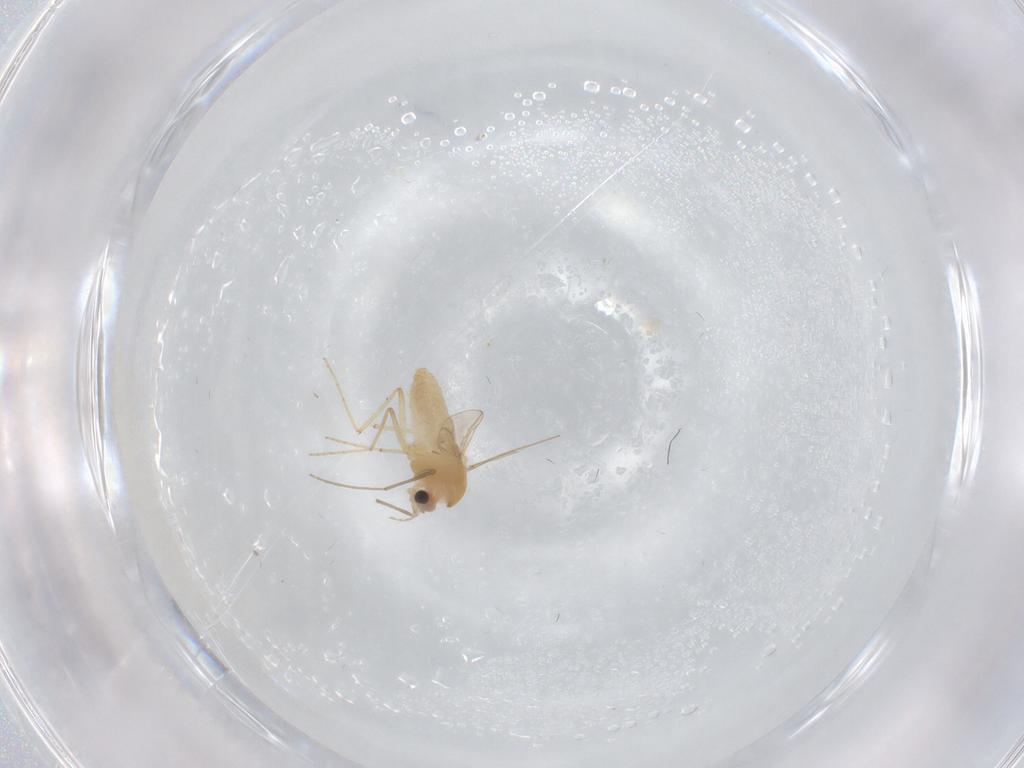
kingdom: Animalia
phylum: Arthropoda
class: Insecta
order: Diptera
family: Chironomidae
